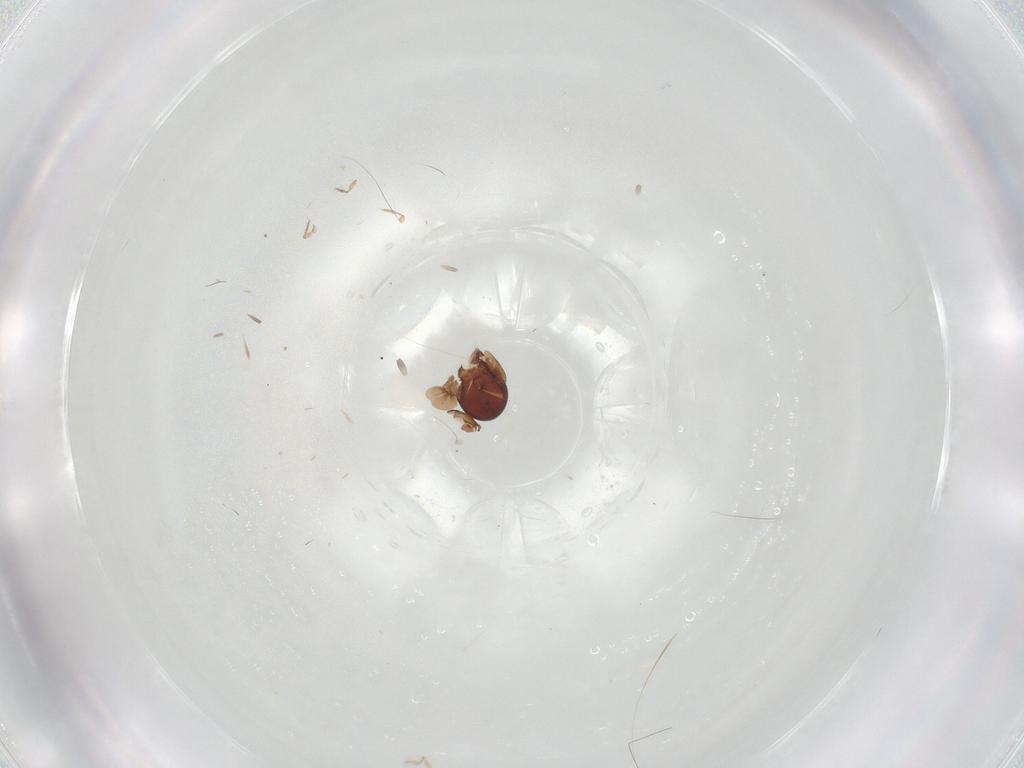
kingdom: Animalia
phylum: Arthropoda
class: Arachnida
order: Sarcoptiformes
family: Galumnidae
